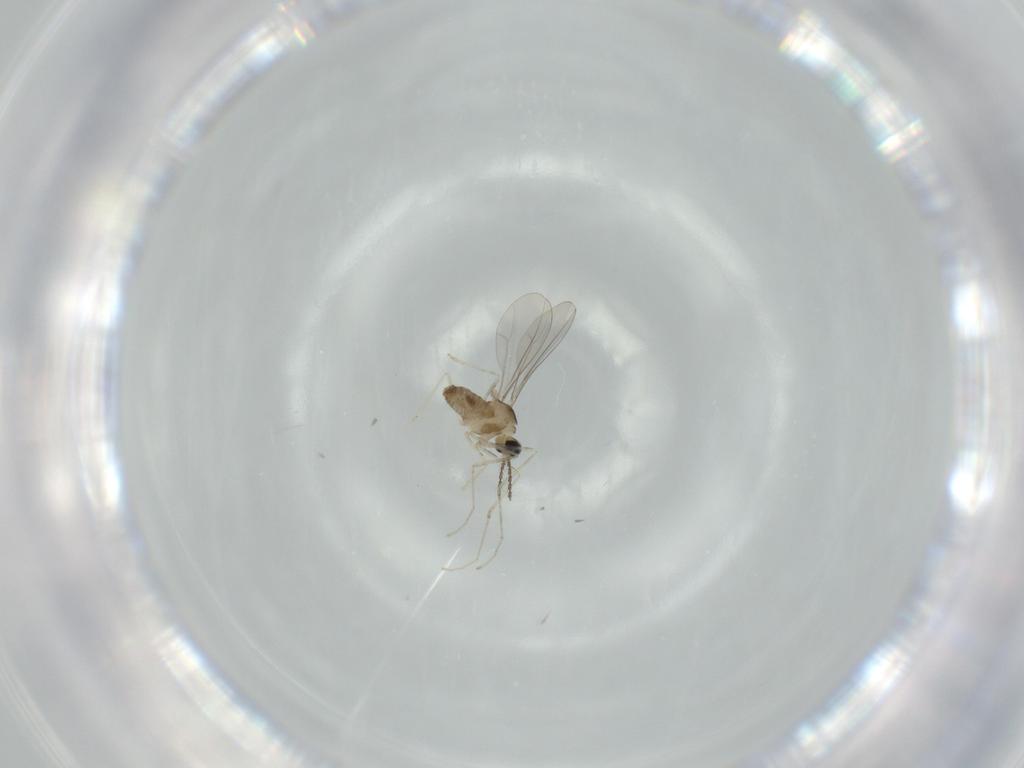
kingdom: Animalia
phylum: Arthropoda
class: Insecta
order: Diptera
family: Cecidomyiidae
